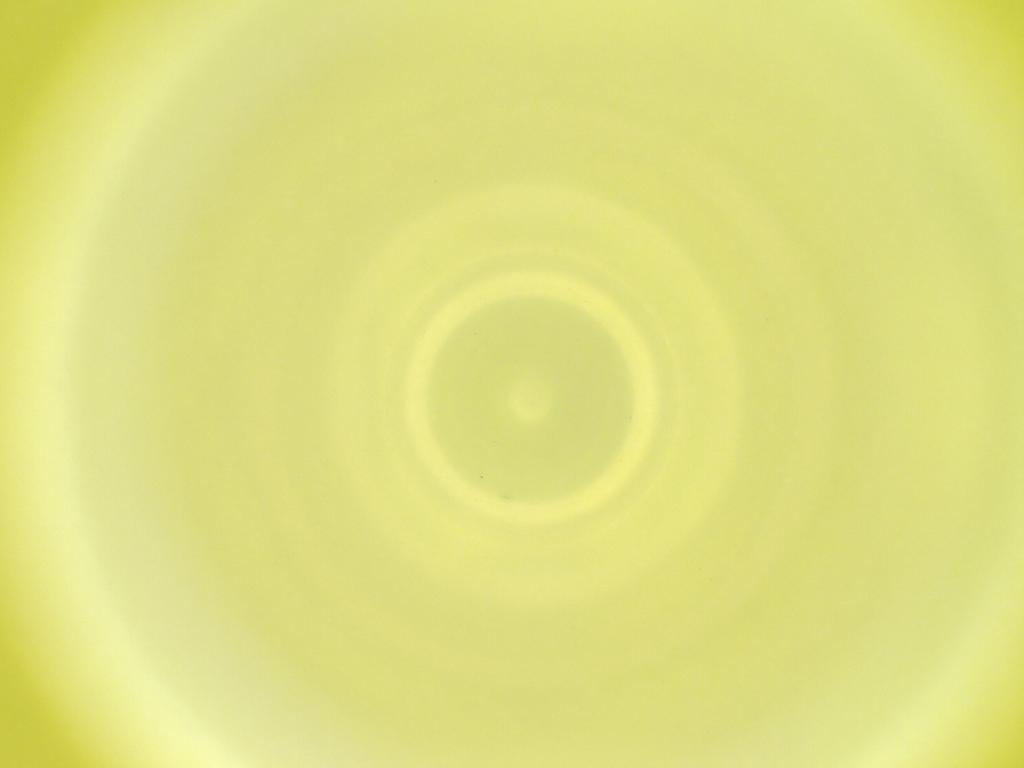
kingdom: Animalia
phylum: Arthropoda
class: Insecta
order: Diptera
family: Cecidomyiidae
